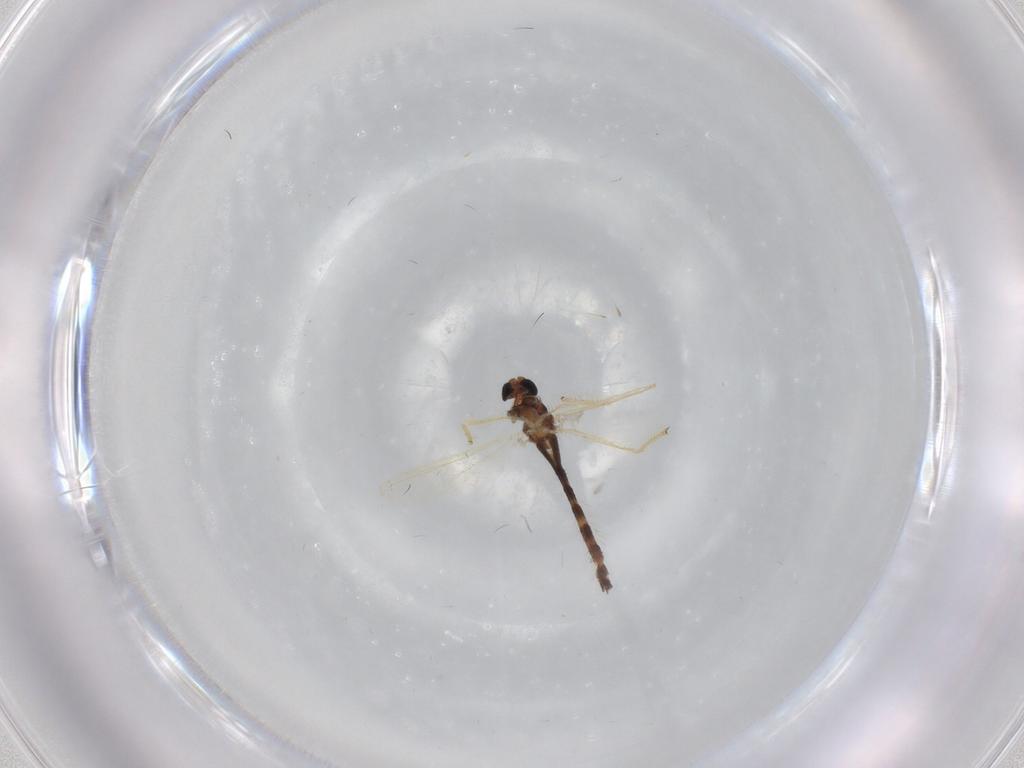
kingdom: Animalia
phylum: Arthropoda
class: Insecta
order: Diptera
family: Chironomidae
